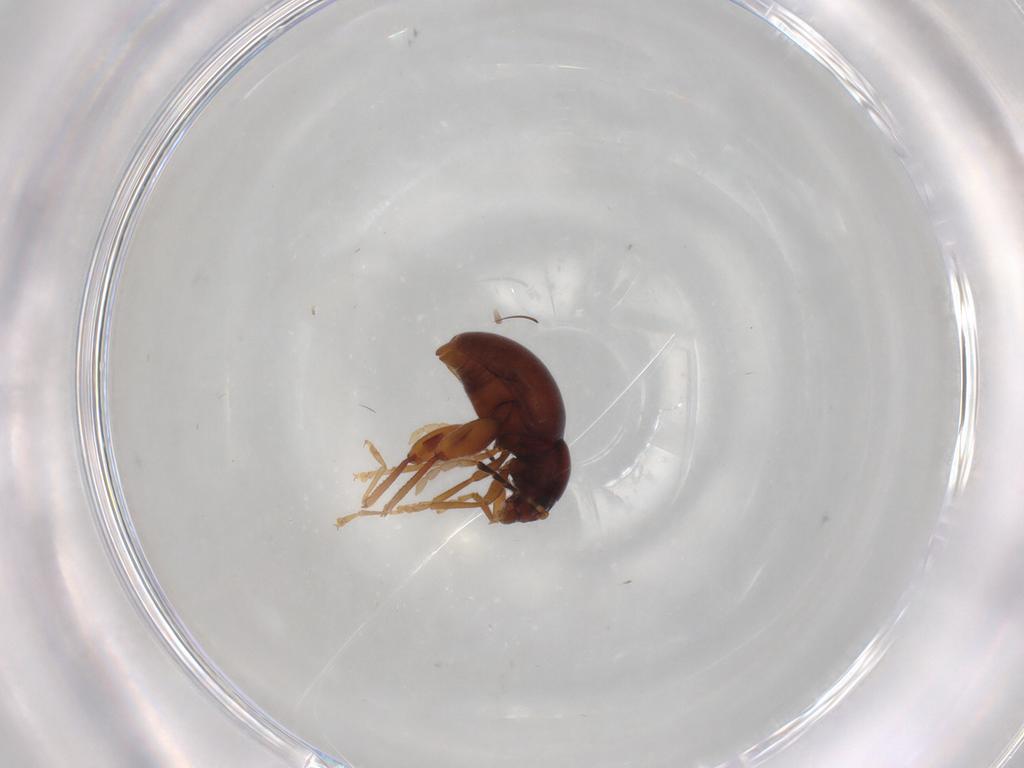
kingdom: Animalia
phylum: Arthropoda
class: Insecta
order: Coleoptera
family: Chrysomelidae
